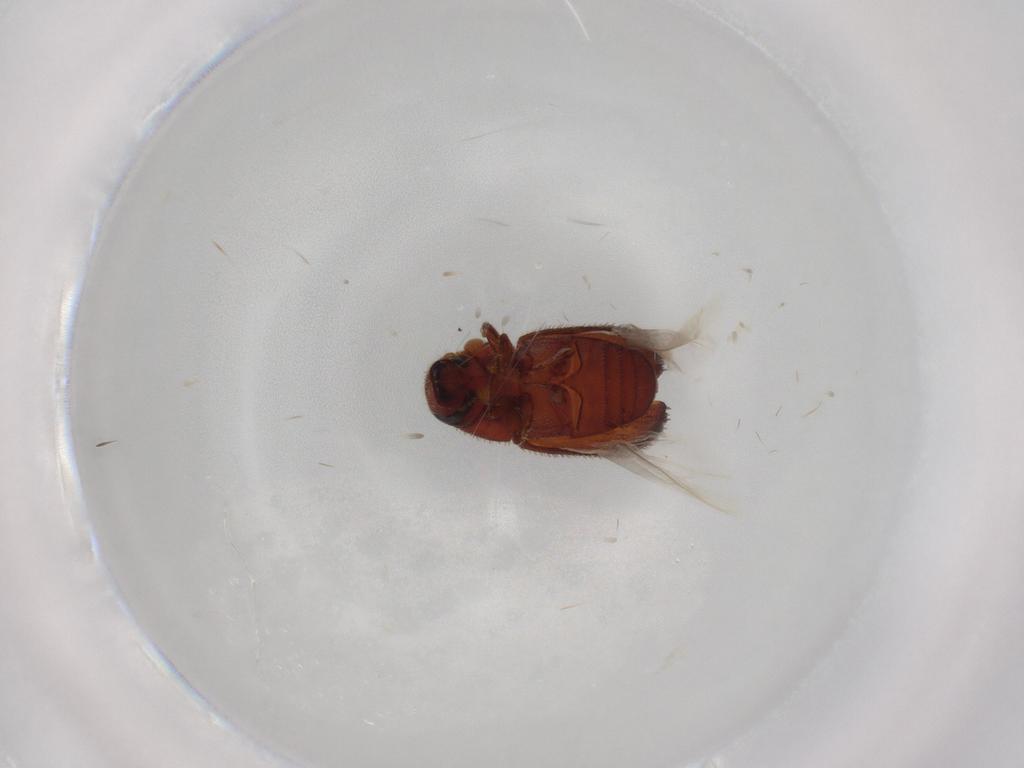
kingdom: Animalia
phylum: Arthropoda
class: Insecta
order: Coleoptera
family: Curculionidae
